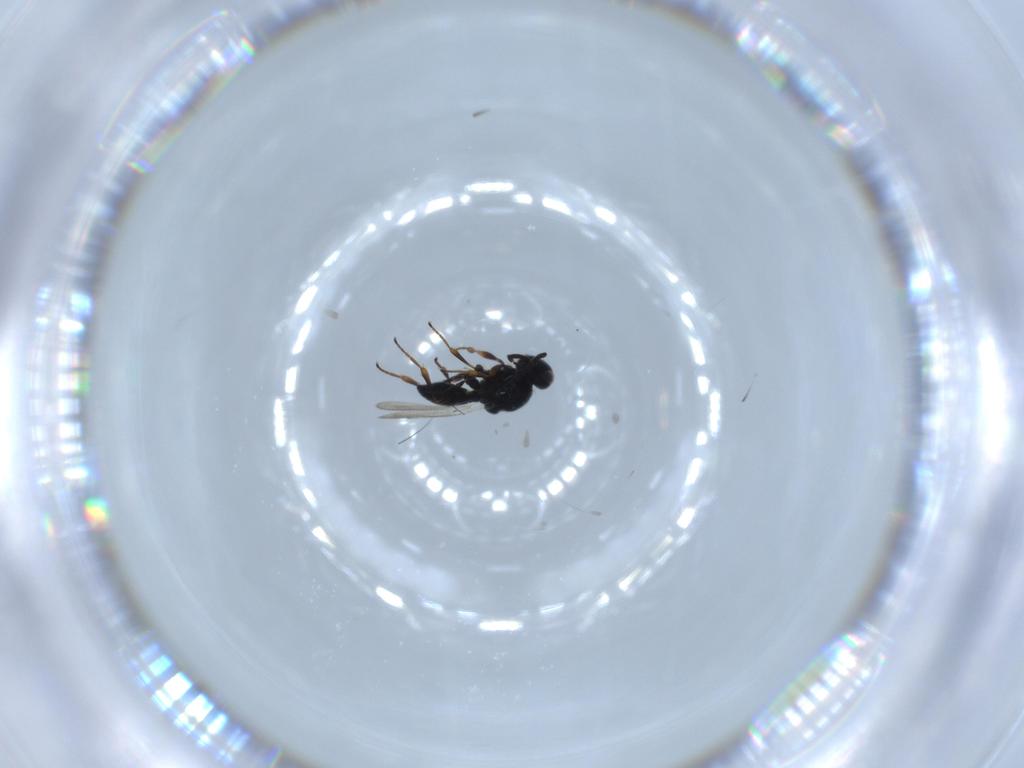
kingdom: Animalia
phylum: Arthropoda
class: Insecta
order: Hymenoptera
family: Platygastridae
